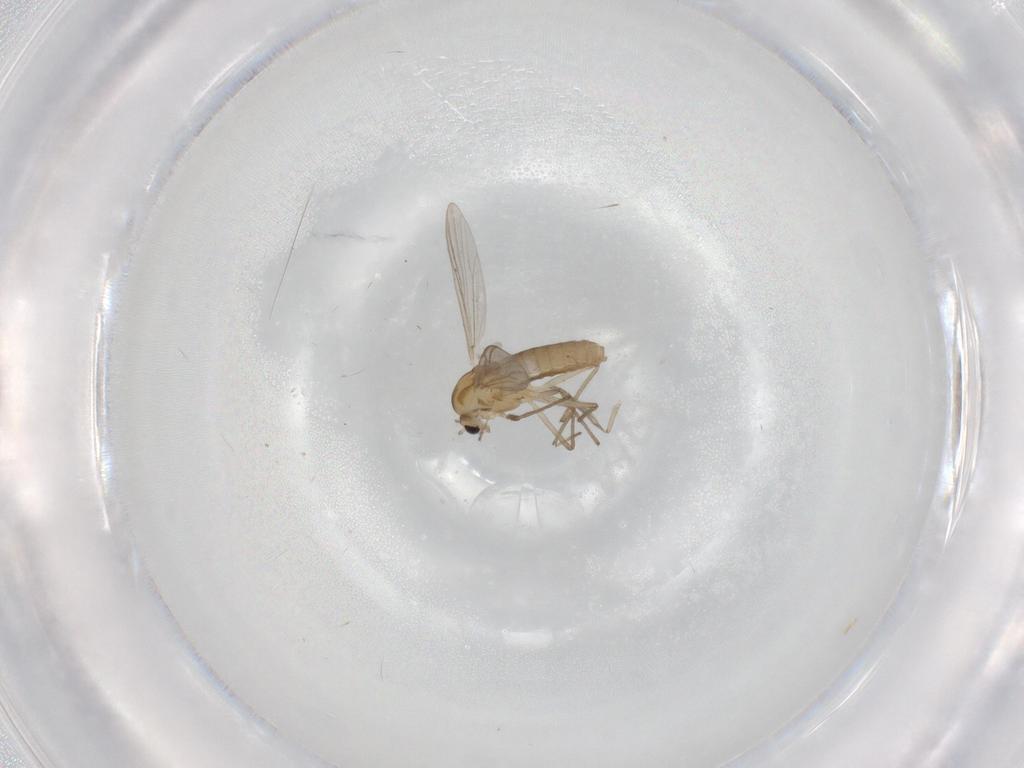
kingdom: Animalia
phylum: Arthropoda
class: Insecta
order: Diptera
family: Chironomidae
